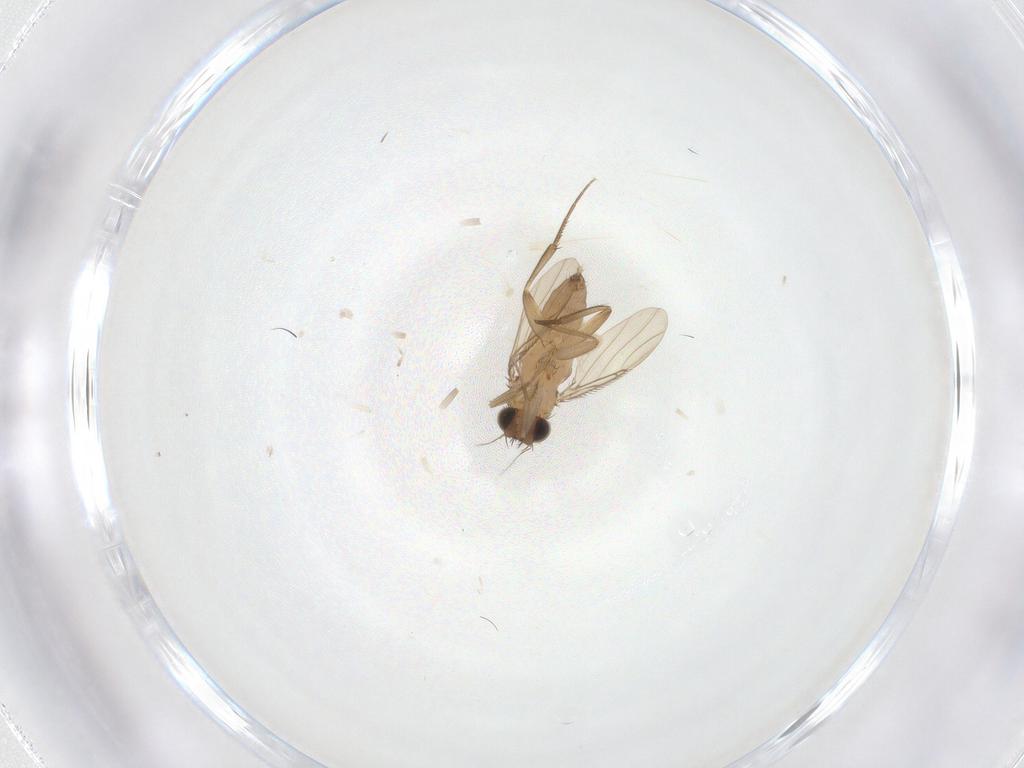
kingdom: Animalia
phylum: Arthropoda
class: Insecta
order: Diptera
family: Phoridae
